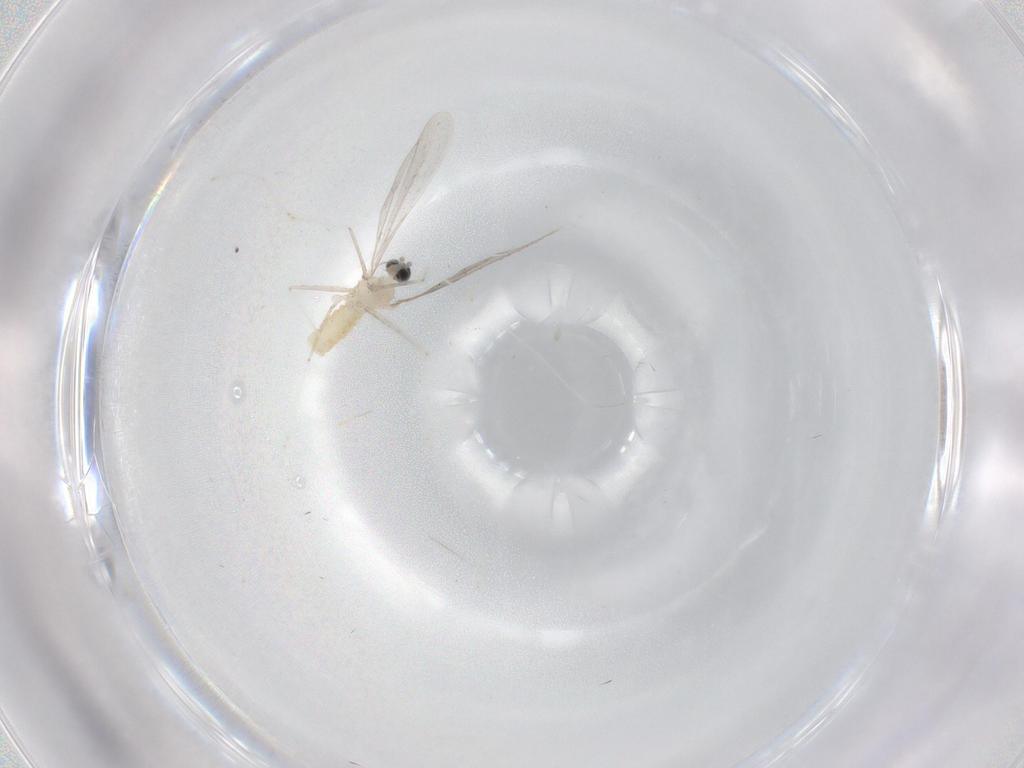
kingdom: Animalia
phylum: Arthropoda
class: Insecta
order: Diptera
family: Cecidomyiidae
